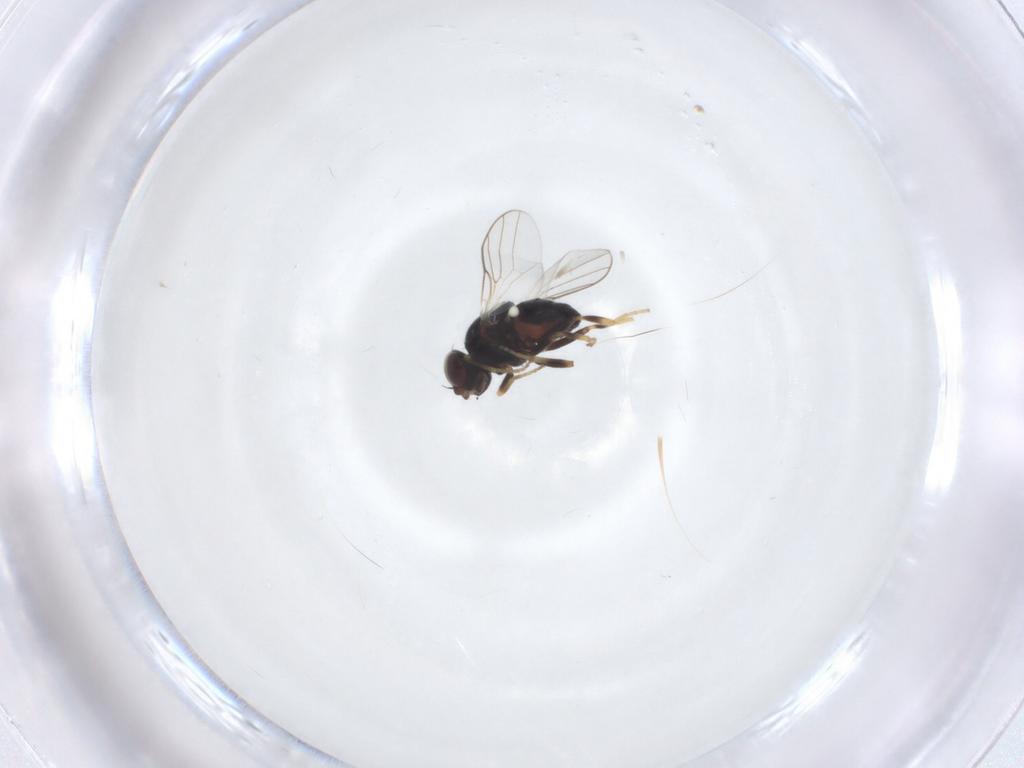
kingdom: Animalia
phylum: Arthropoda
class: Insecta
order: Diptera
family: Chloropidae
